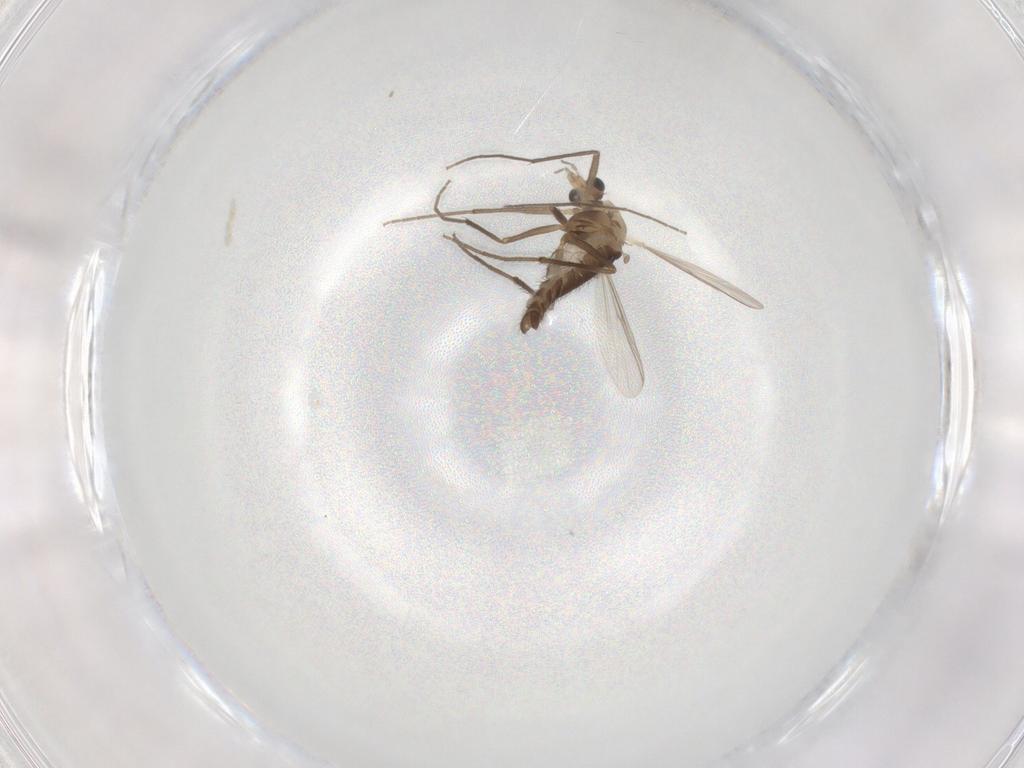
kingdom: Animalia
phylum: Arthropoda
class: Insecta
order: Diptera
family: Chironomidae
